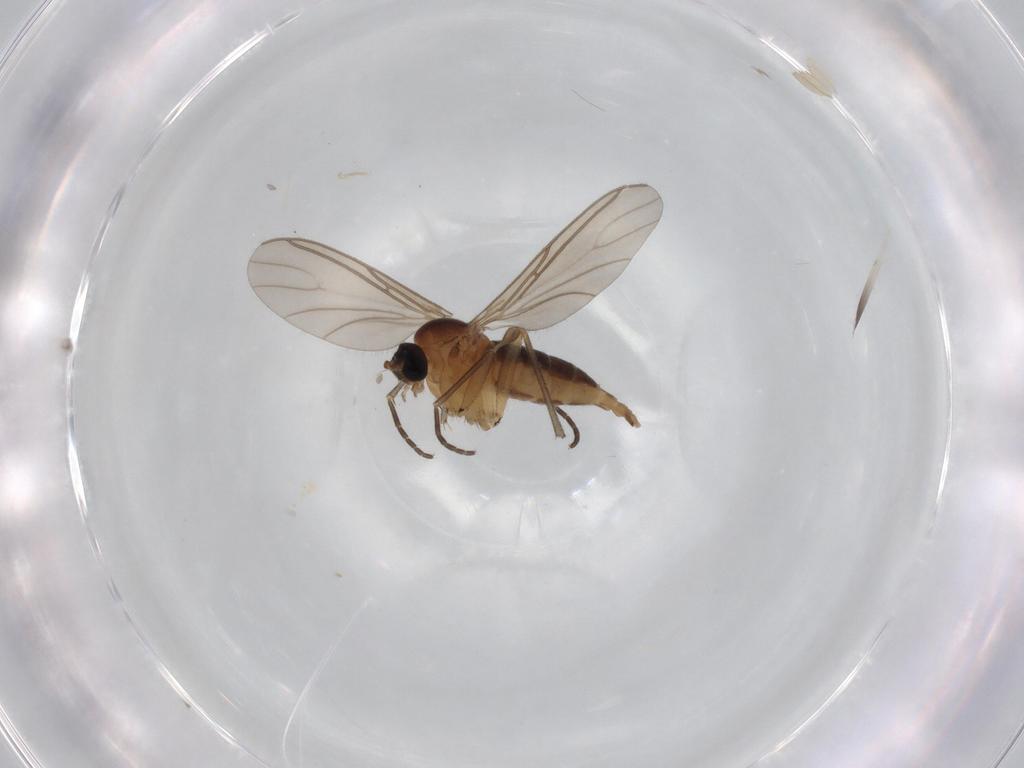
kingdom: Animalia
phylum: Arthropoda
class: Insecta
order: Diptera
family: Sciaridae
